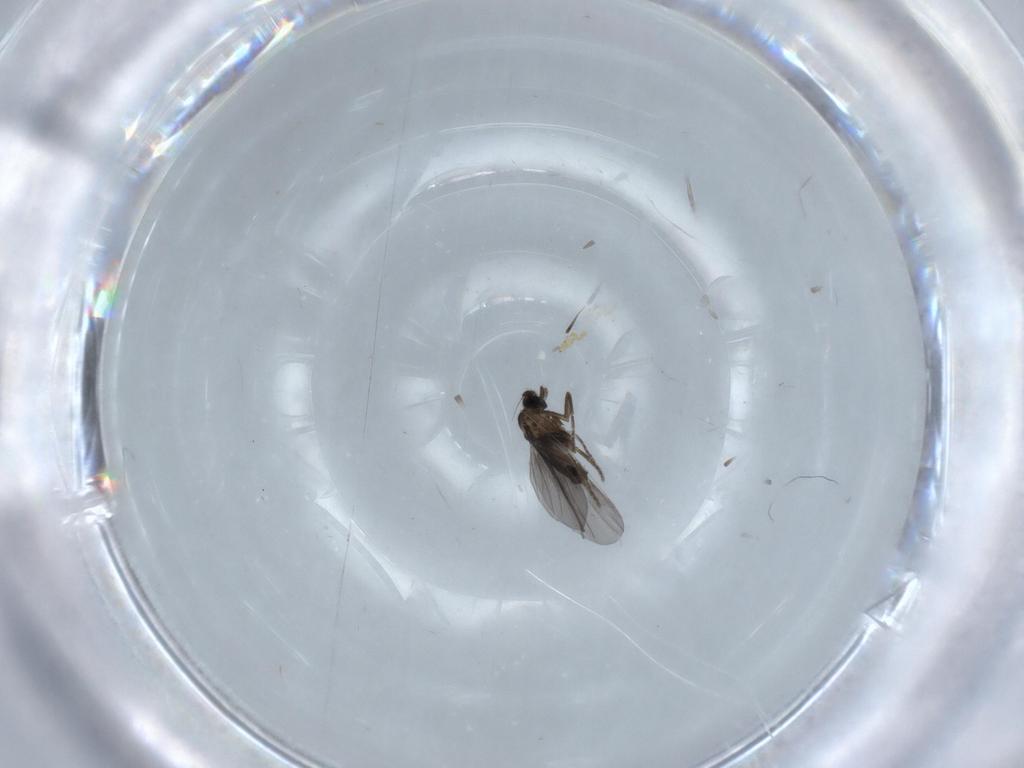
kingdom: Animalia
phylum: Arthropoda
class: Insecta
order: Diptera
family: Phoridae
